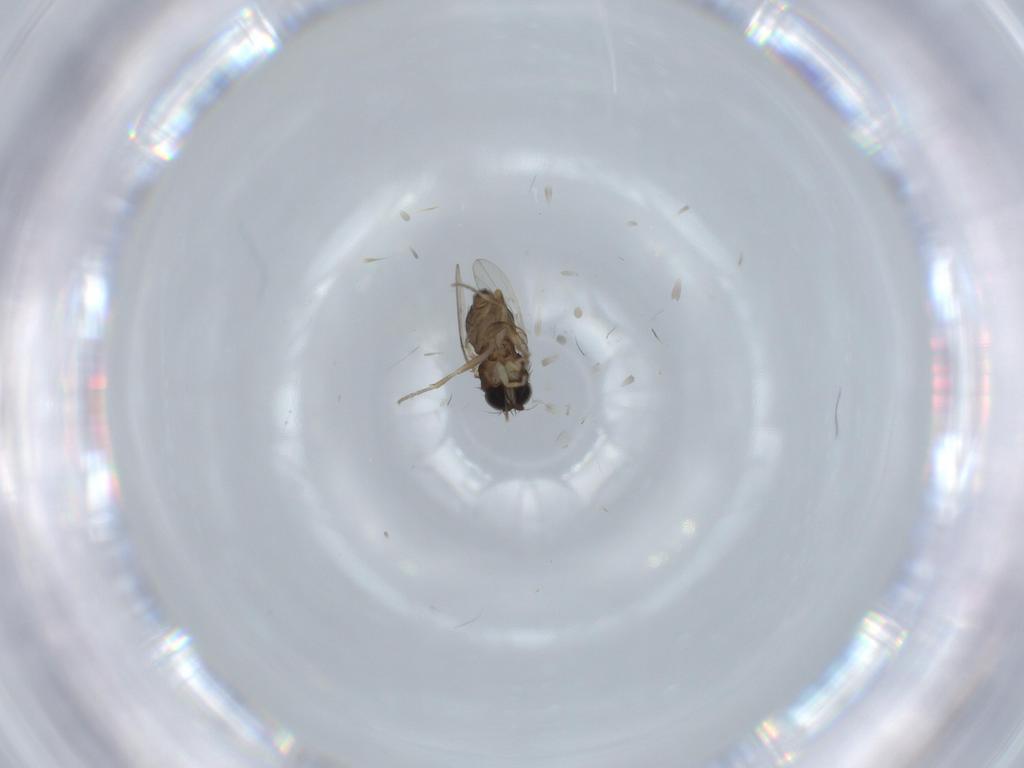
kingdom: Animalia
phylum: Arthropoda
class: Insecta
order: Diptera
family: Phoridae
